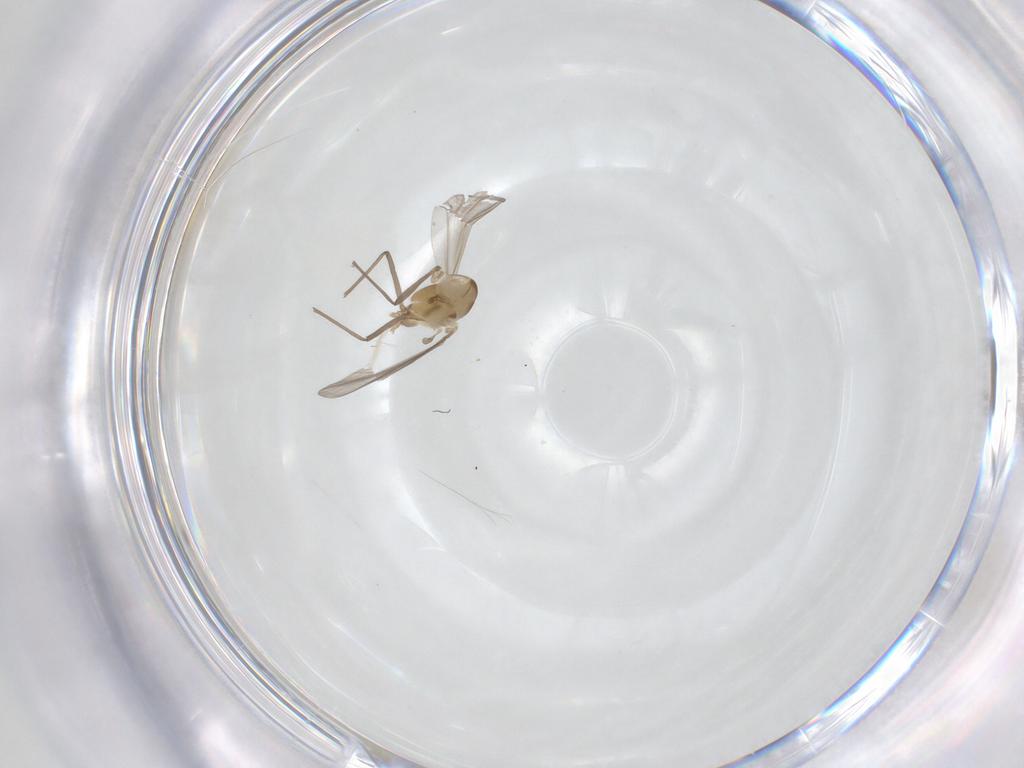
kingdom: Animalia
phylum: Arthropoda
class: Insecta
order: Diptera
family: Chironomidae
